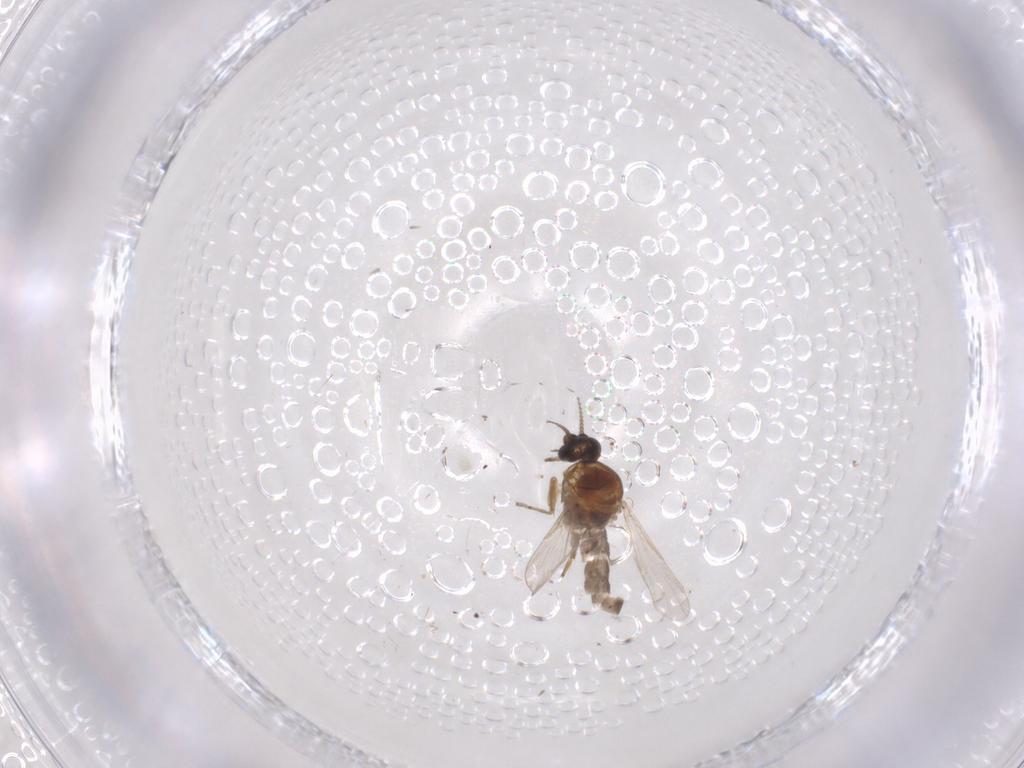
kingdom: Animalia
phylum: Arthropoda
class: Insecta
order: Diptera
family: Ceratopogonidae
